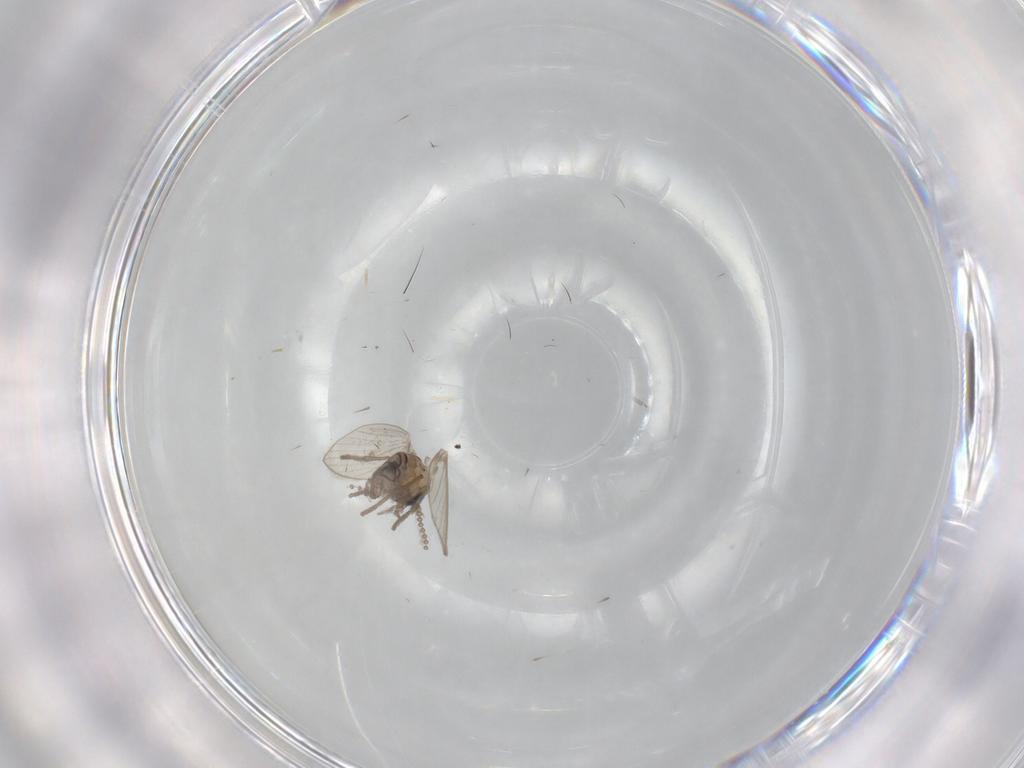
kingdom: Animalia
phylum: Arthropoda
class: Insecta
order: Diptera
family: Psychodidae
